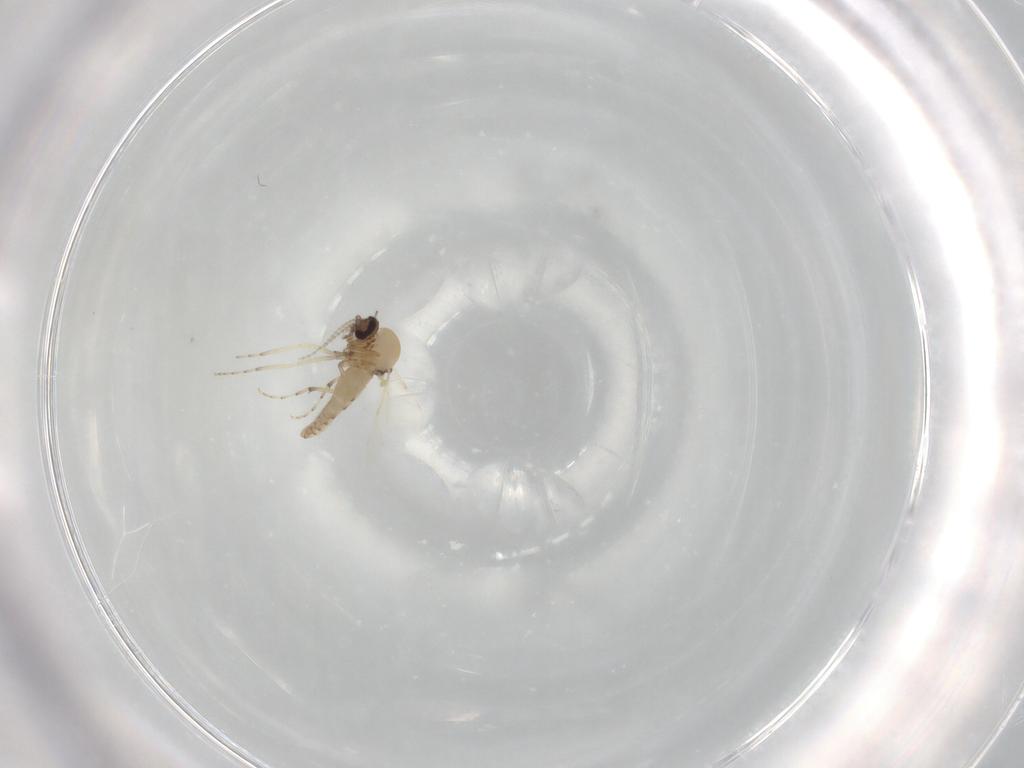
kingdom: Animalia
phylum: Arthropoda
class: Insecta
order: Diptera
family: Ceratopogonidae
